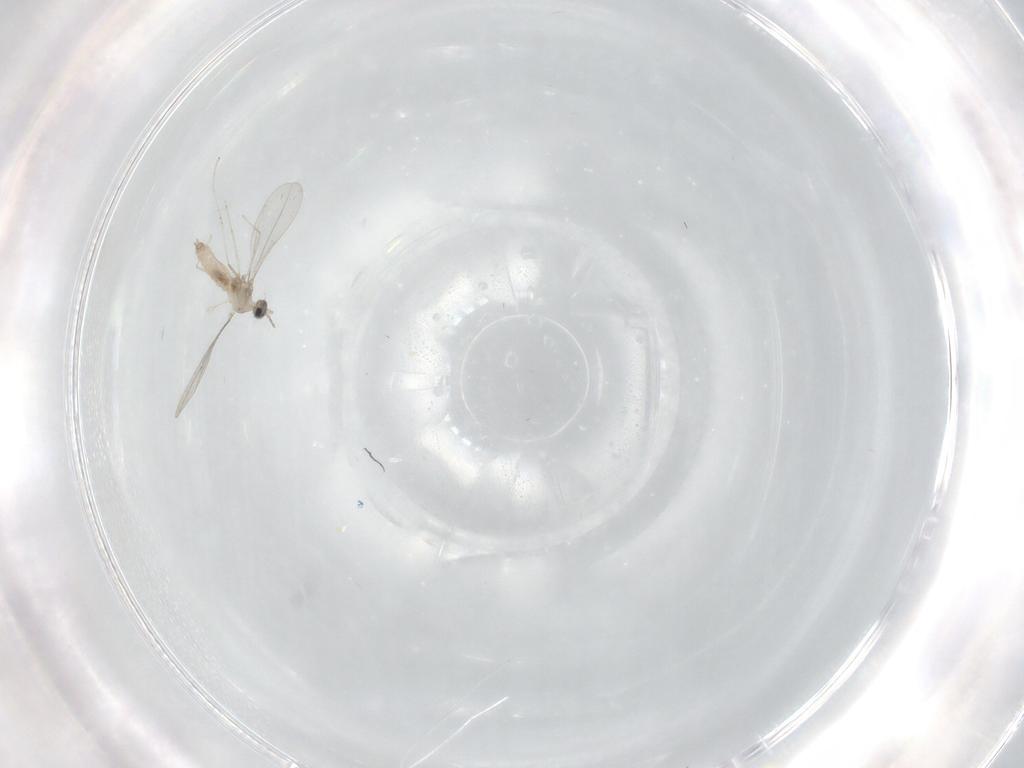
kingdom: Animalia
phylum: Arthropoda
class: Insecta
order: Diptera
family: Cecidomyiidae
